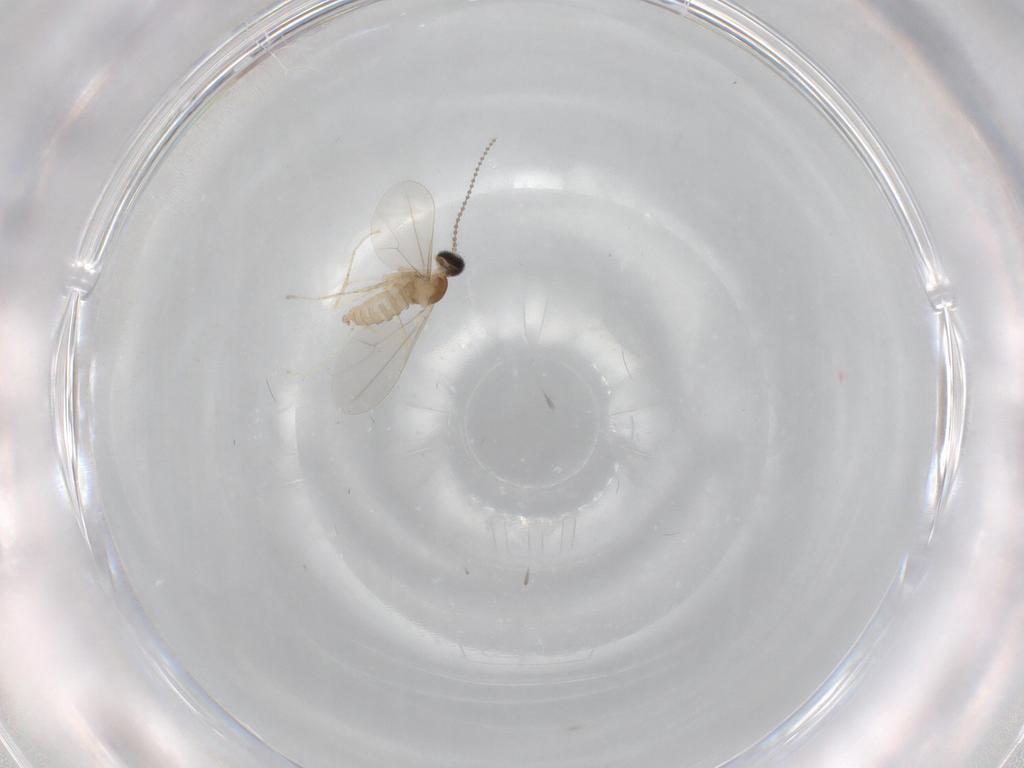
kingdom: Animalia
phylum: Arthropoda
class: Insecta
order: Diptera
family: Cecidomyiidae
